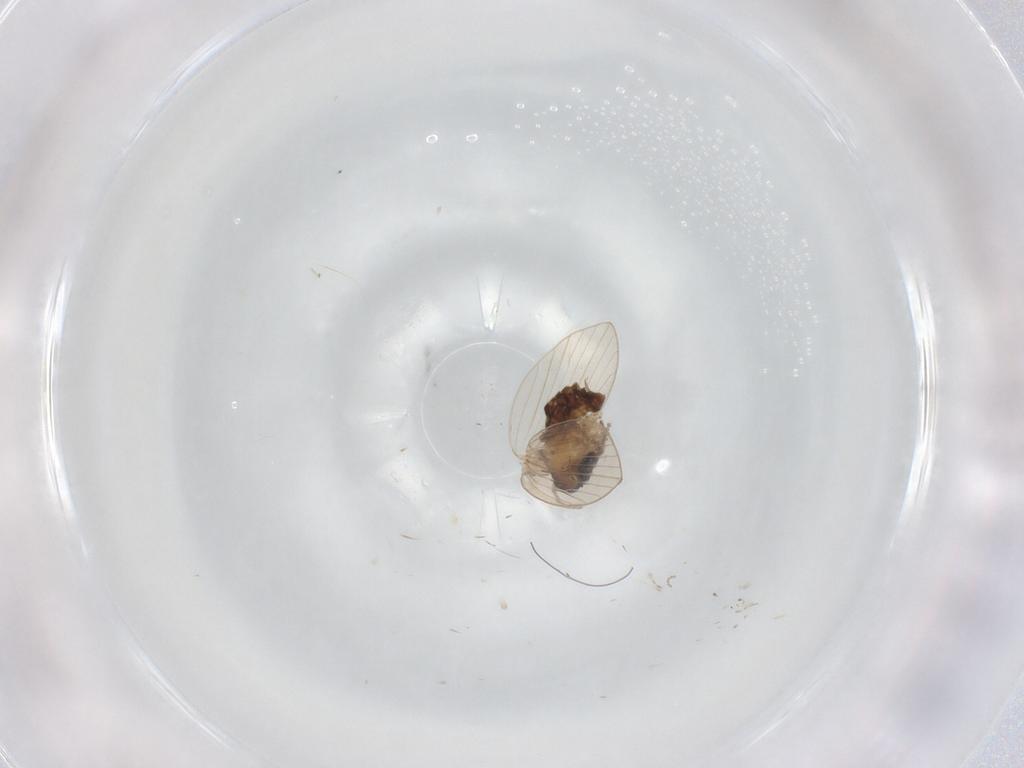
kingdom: Animalia
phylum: Arthropoda
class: Insecta
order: Diptera
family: Psychodidae
